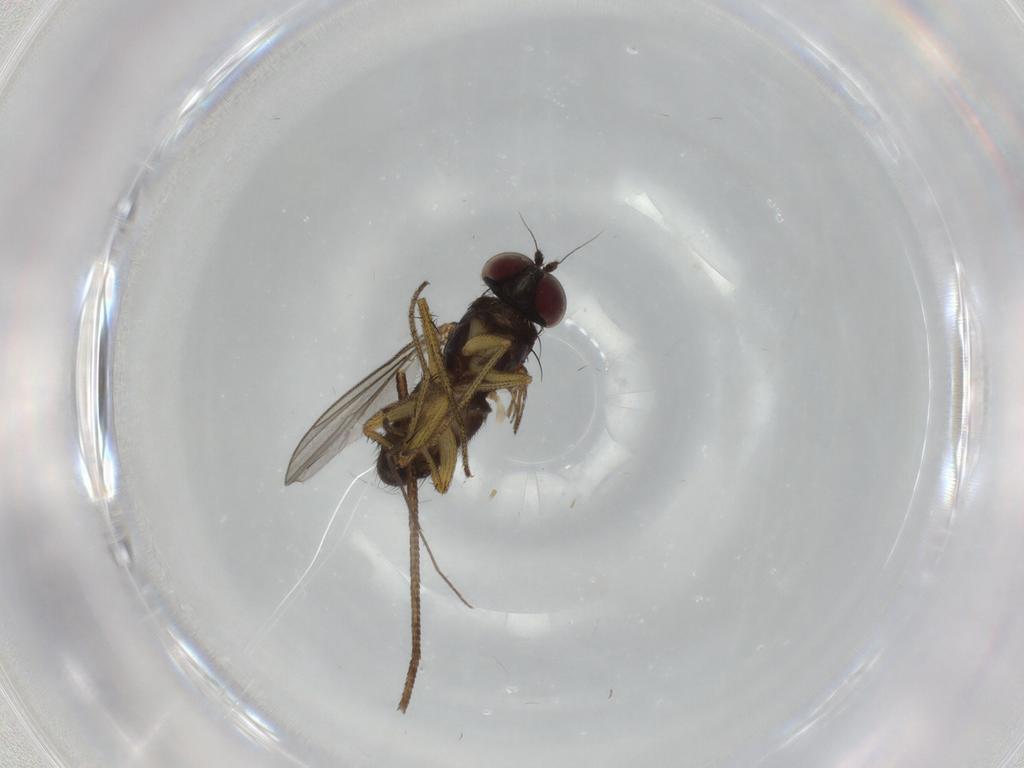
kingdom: Animalia
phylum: Arthropoda
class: Insecta
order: Diptera
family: Dolichopodidae
